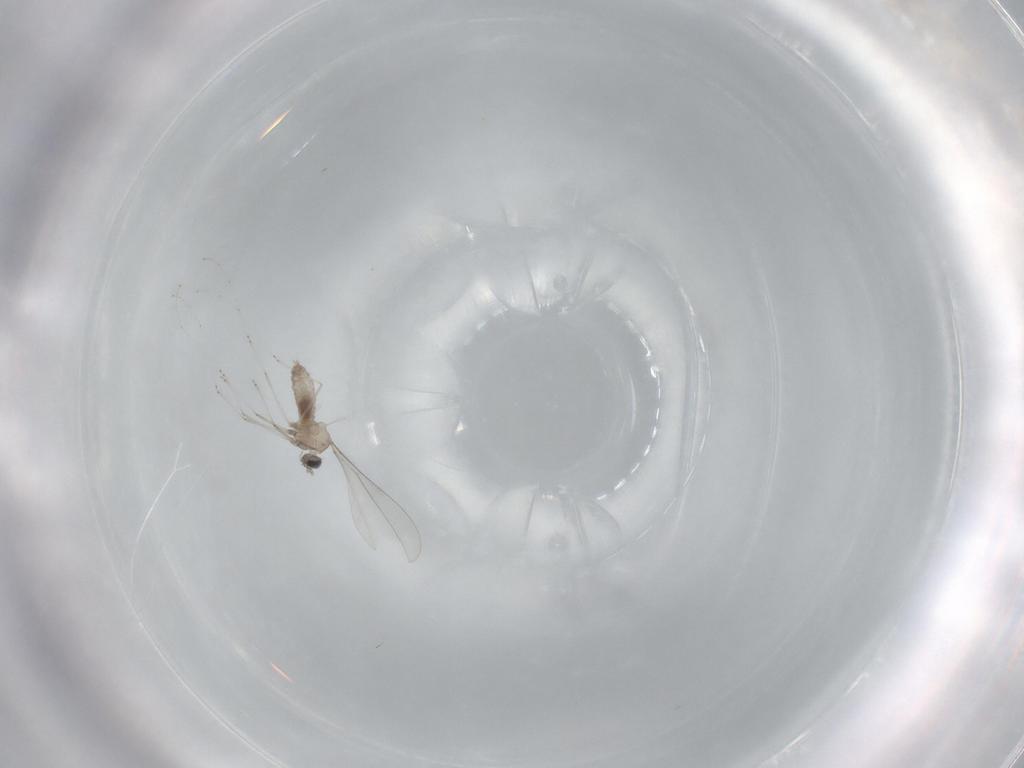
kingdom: Animalia
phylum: Arthropoda
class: Insecta
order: Diptera
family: Cecidomyiidae
